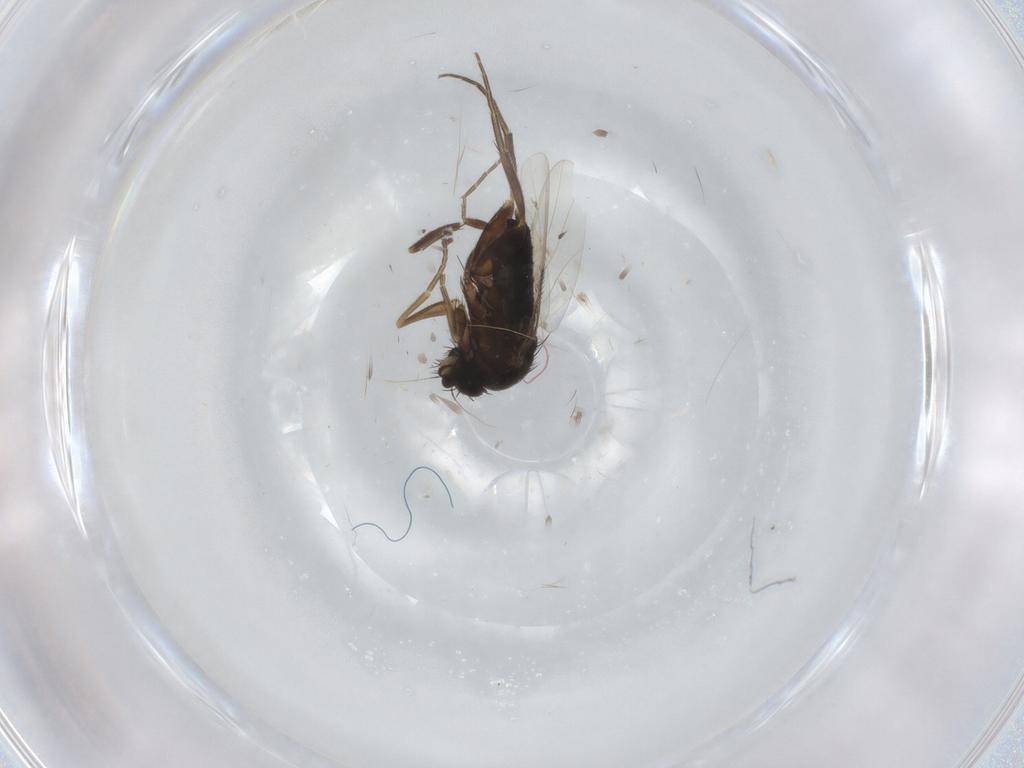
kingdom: Animalia
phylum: Arthropoda
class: Insecta
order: Diptera
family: Phoridae
